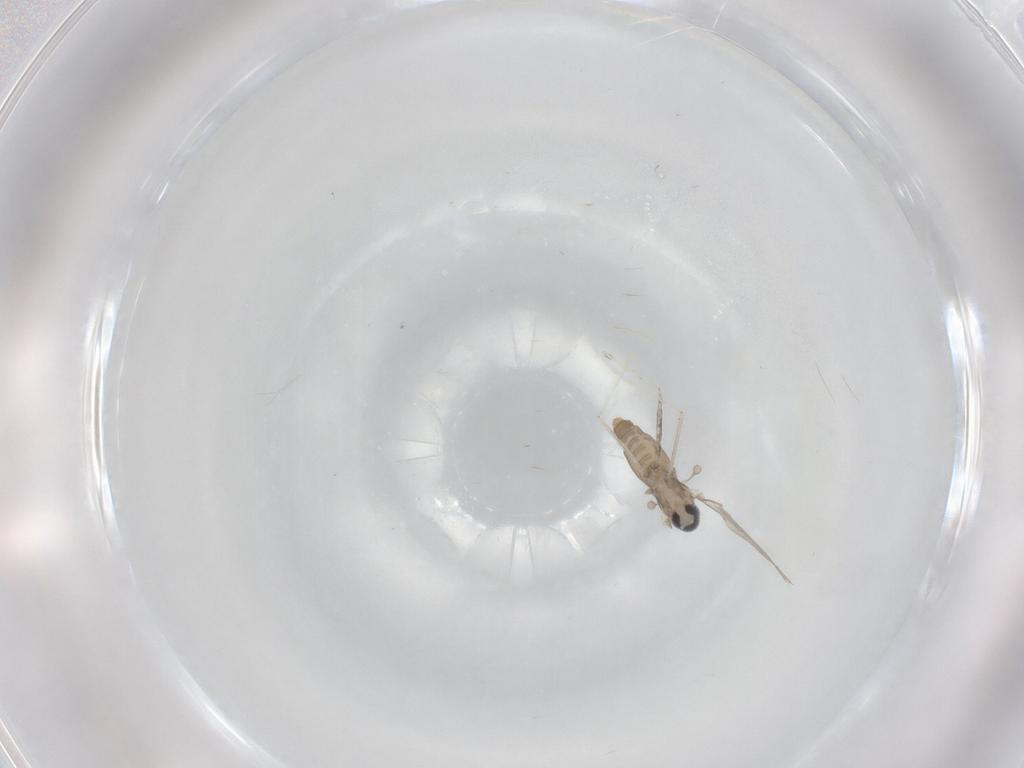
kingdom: Animalia
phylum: Arthropoda
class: Insecta
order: Diptera
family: Cecidomyiidae
